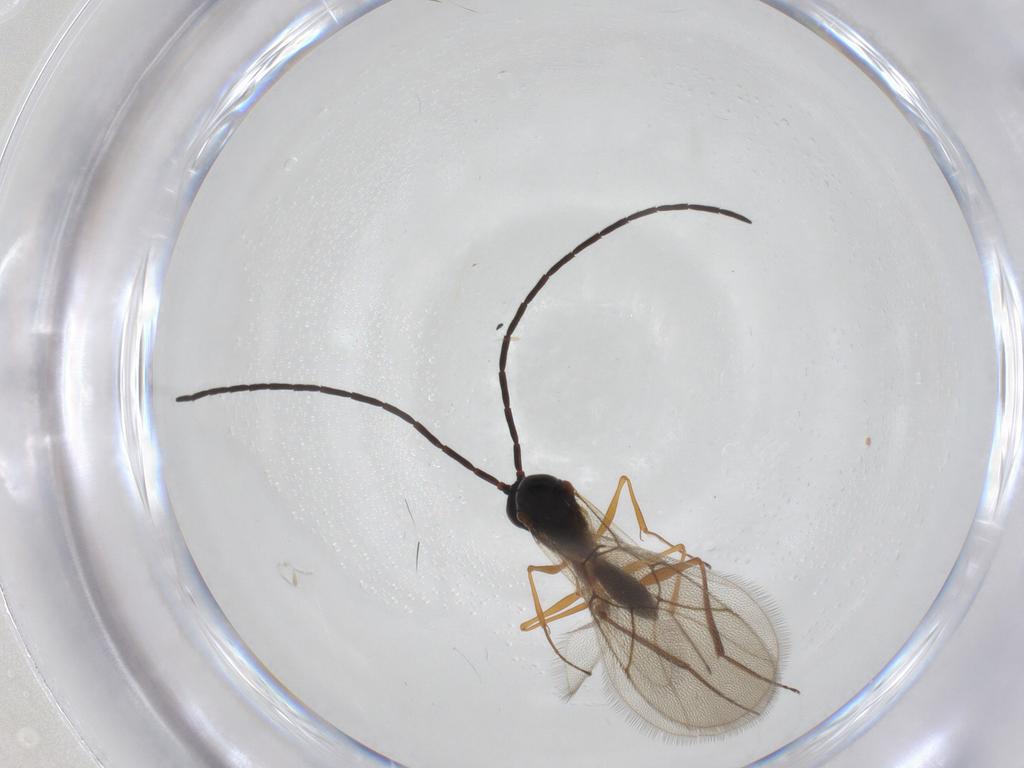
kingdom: Animalia
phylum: Arthropoda
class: Insecta
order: Hymenoptera
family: Figitidae
